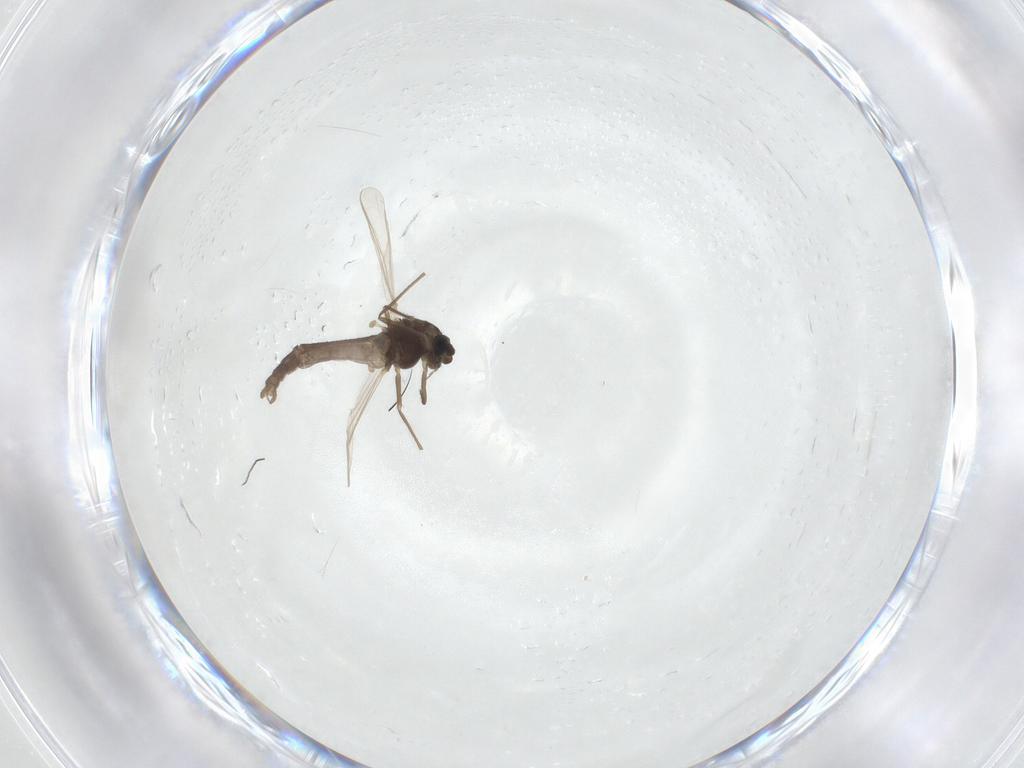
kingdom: Animalia
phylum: Arthropoda
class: Insecta
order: Diptera
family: Chironomidae
